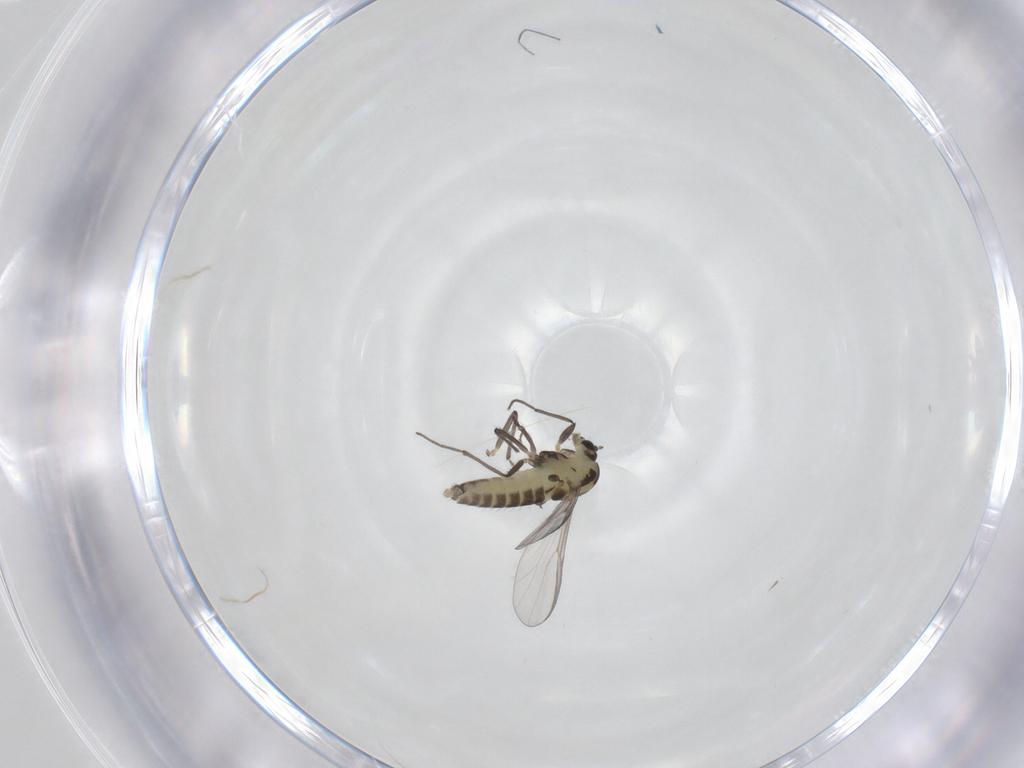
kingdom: Animalia
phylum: Arthropoda
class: Insecta
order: Diptera
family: Chironomidae
